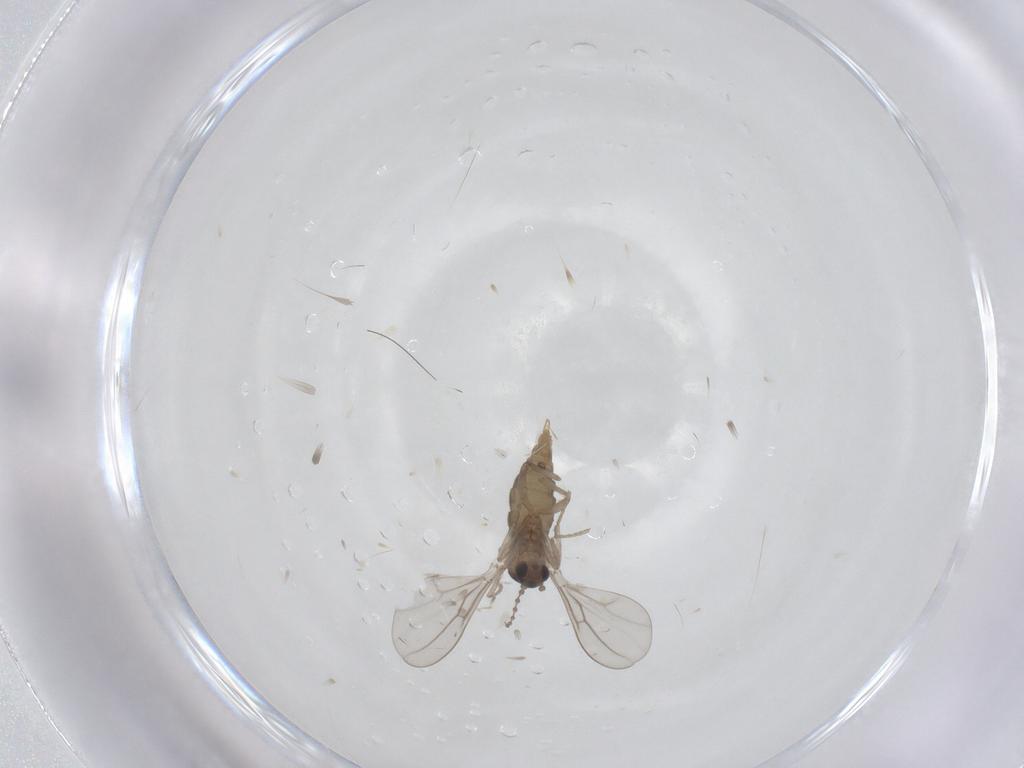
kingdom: Animalia
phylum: Arthropoda
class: Insecta
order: Diptera
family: Cecidomyiidae
